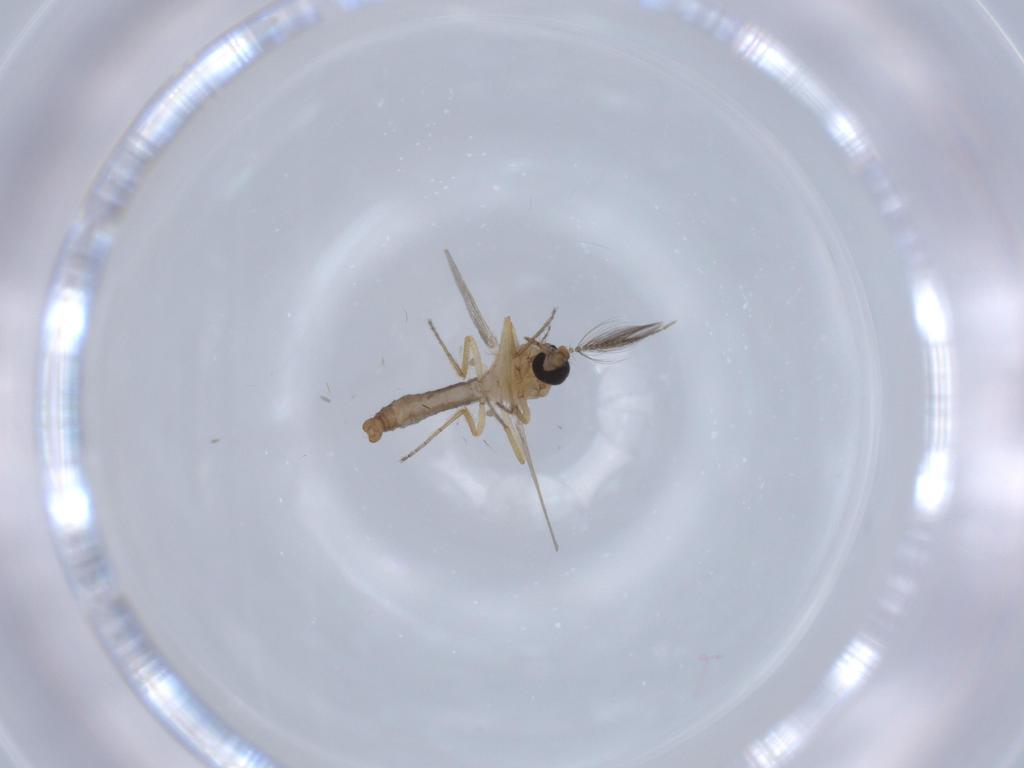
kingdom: Animalia
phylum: Arthropoda
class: Insecta
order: Diptera
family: Ceratopogonidae
